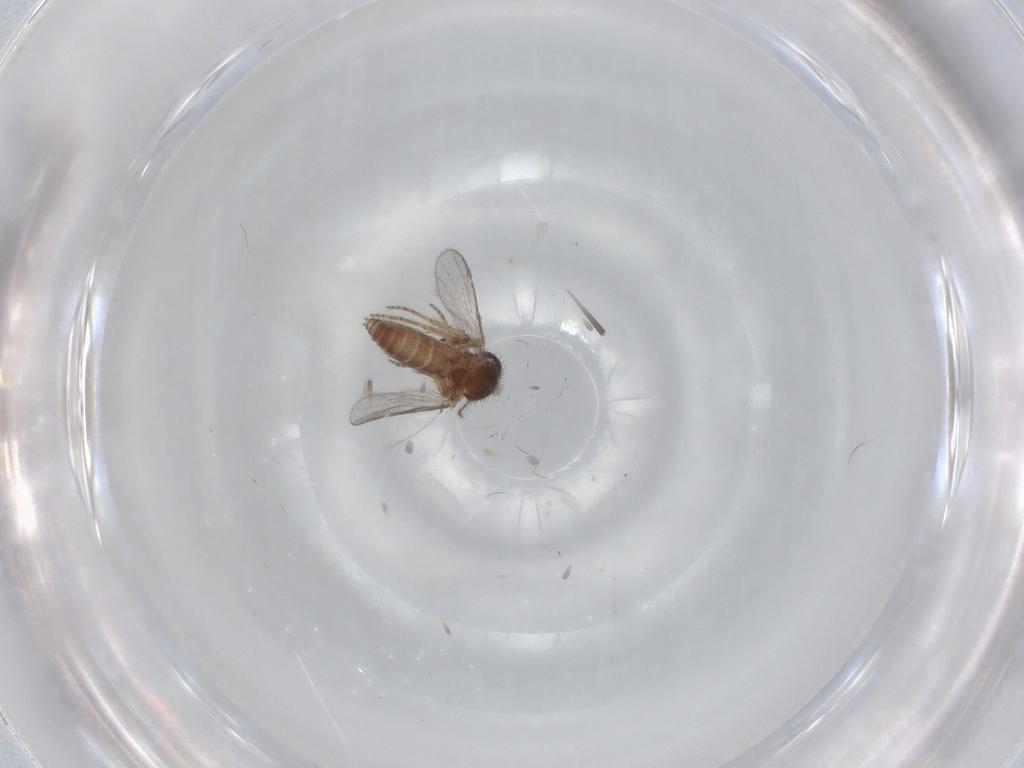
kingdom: Animalia
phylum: Arthropoda
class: Insecta
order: Diptera
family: Ceratopogonidae
